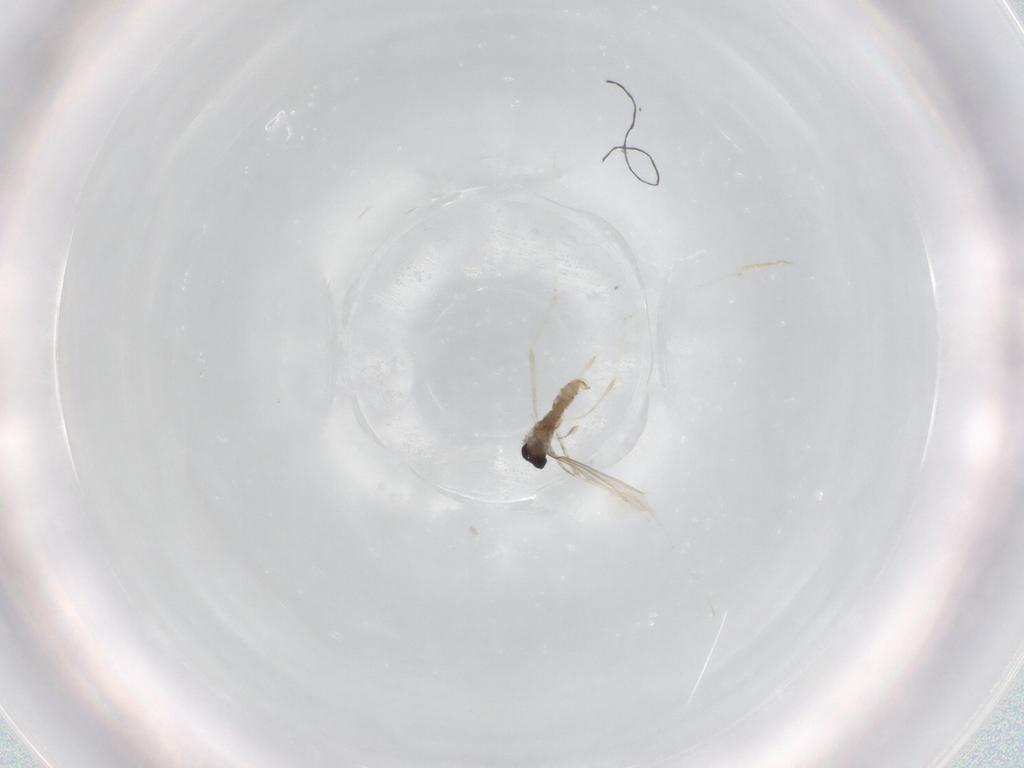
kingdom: Animalia
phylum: Arthropoda
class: Insecta
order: Diptera
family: Cecidomyiidae
